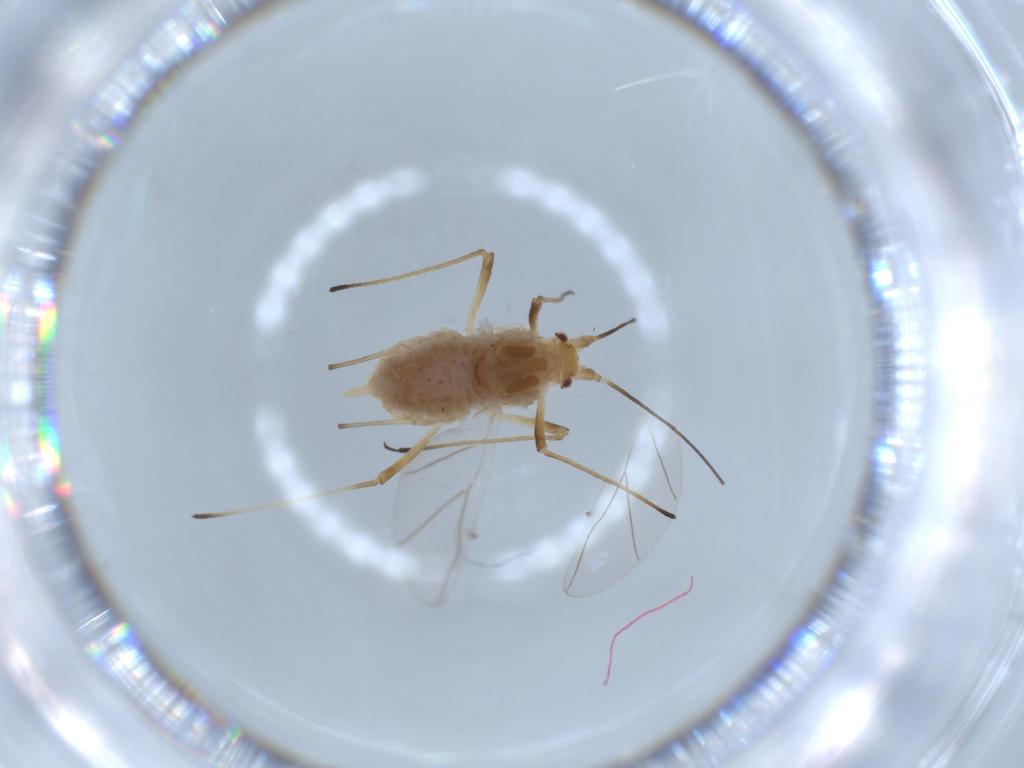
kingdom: Animalia
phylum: Arthropoda
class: Insecta
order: Hemiptera
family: Aphididae
